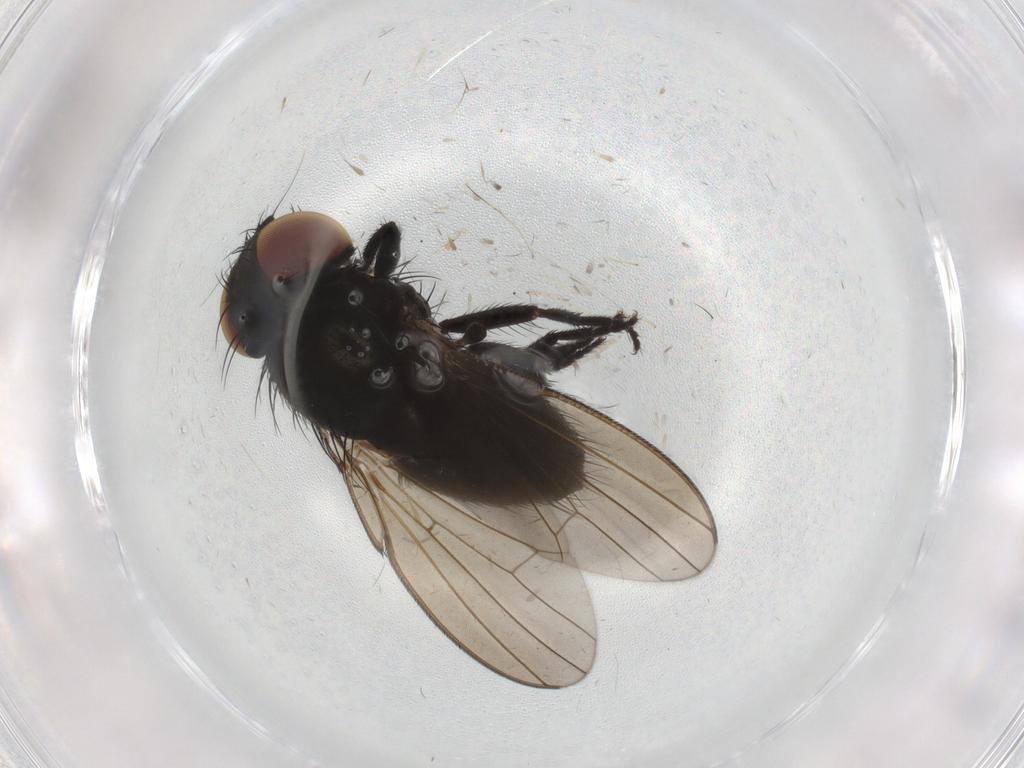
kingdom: Animalia
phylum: Arthropoda
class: Insecta
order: Diptera
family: Milichiidae
